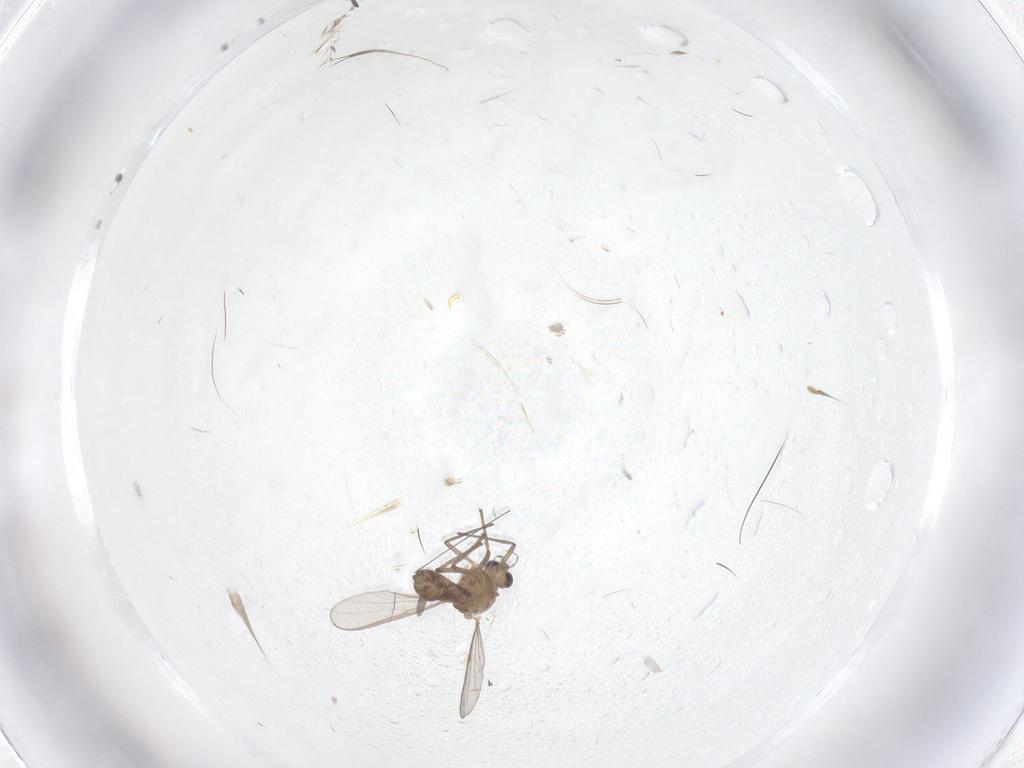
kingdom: Animalia
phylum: Arthropoda
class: Insecta
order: Diptera
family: Chironomidae
